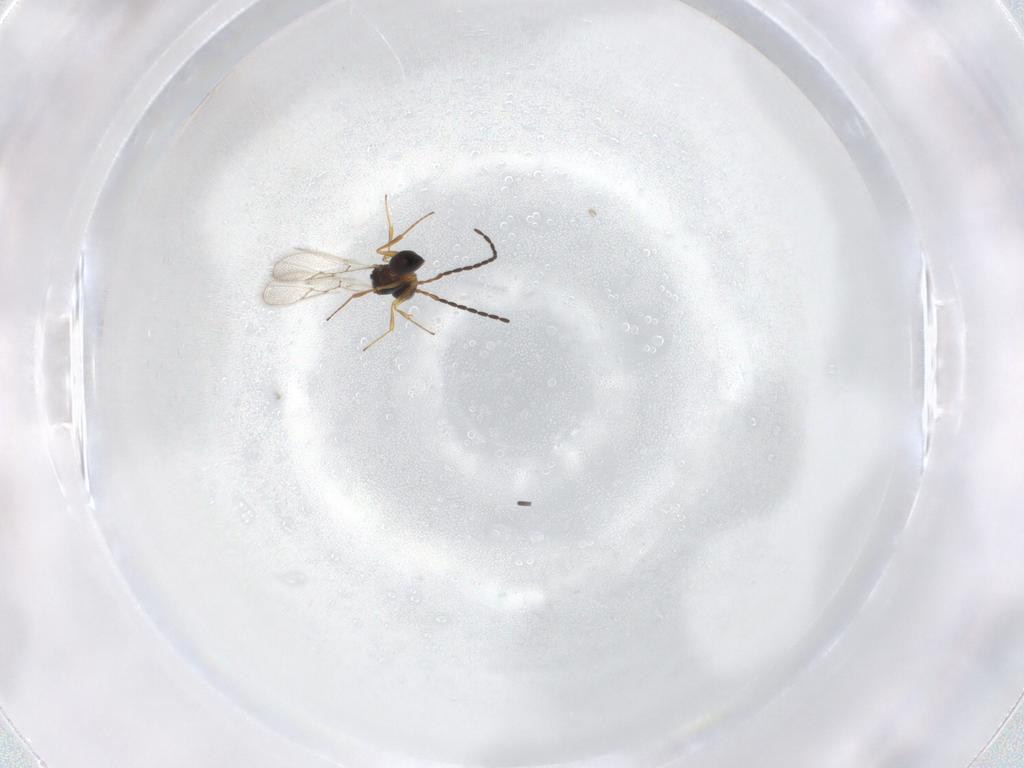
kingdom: Animalia
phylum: Arthropoda
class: Insecta
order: Hymenoptera
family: Figitidae
